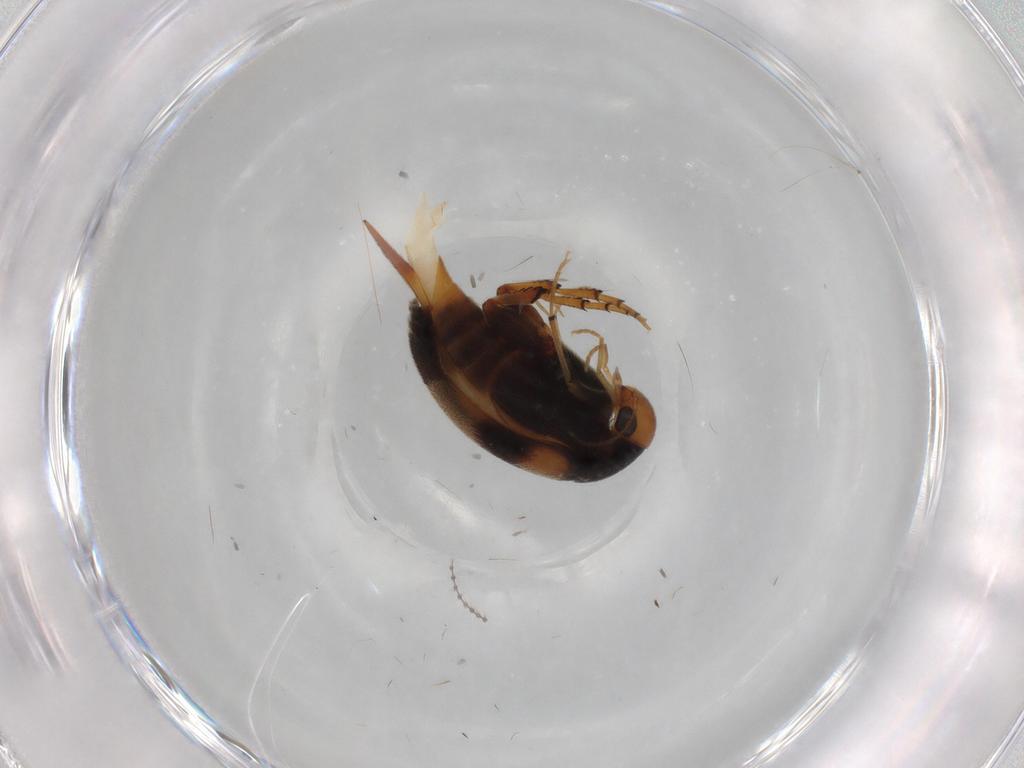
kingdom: Animalia
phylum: Arthropoda
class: Insecta
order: Coleoptera
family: Mordellidae
